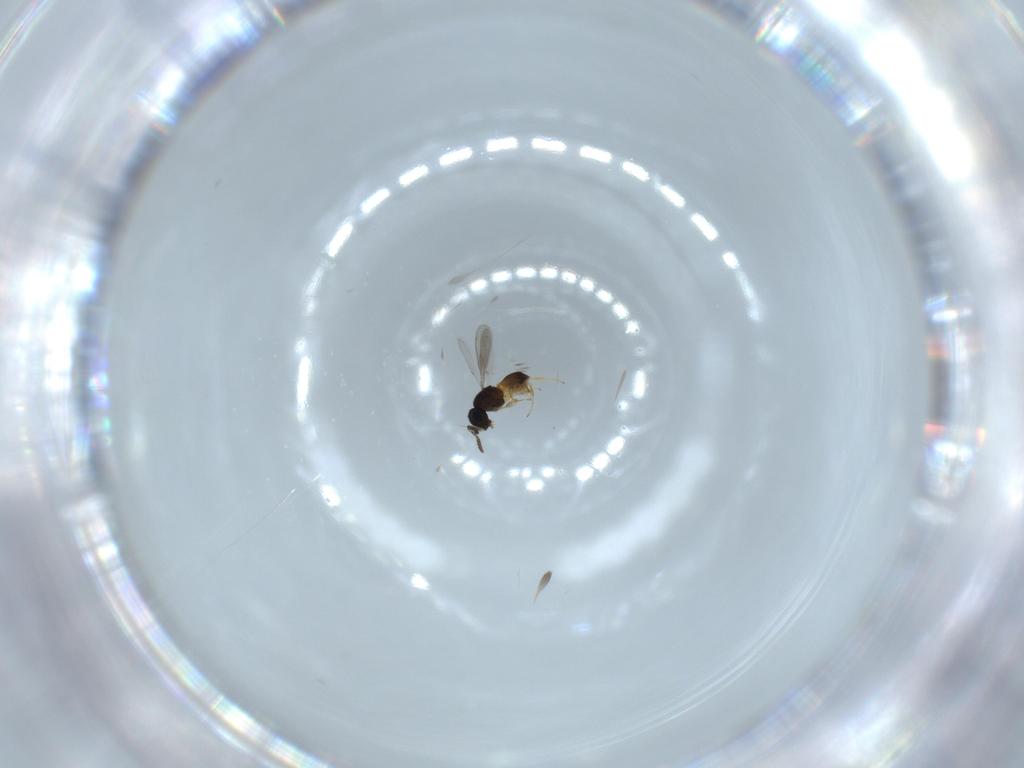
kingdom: Animalia
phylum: Arthropoda
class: Insecta
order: Hymenoptera
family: Scelionidae
